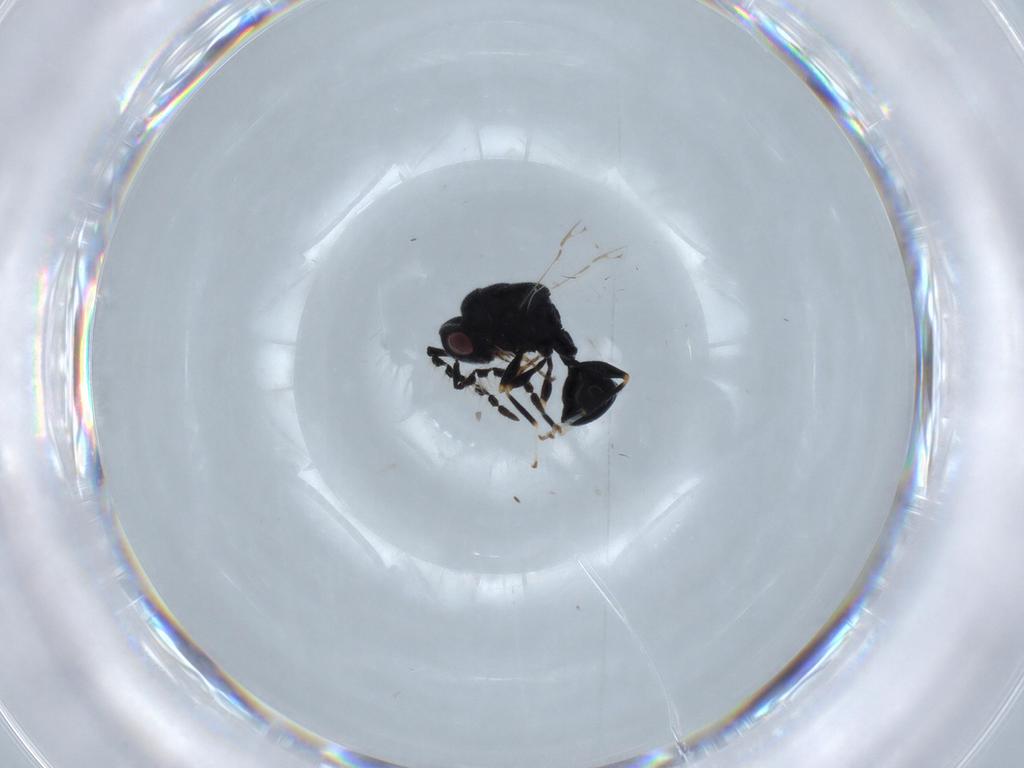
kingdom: Animalia
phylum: Arthropoda
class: Insecta
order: Hymenoptera
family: Eurytomidae
